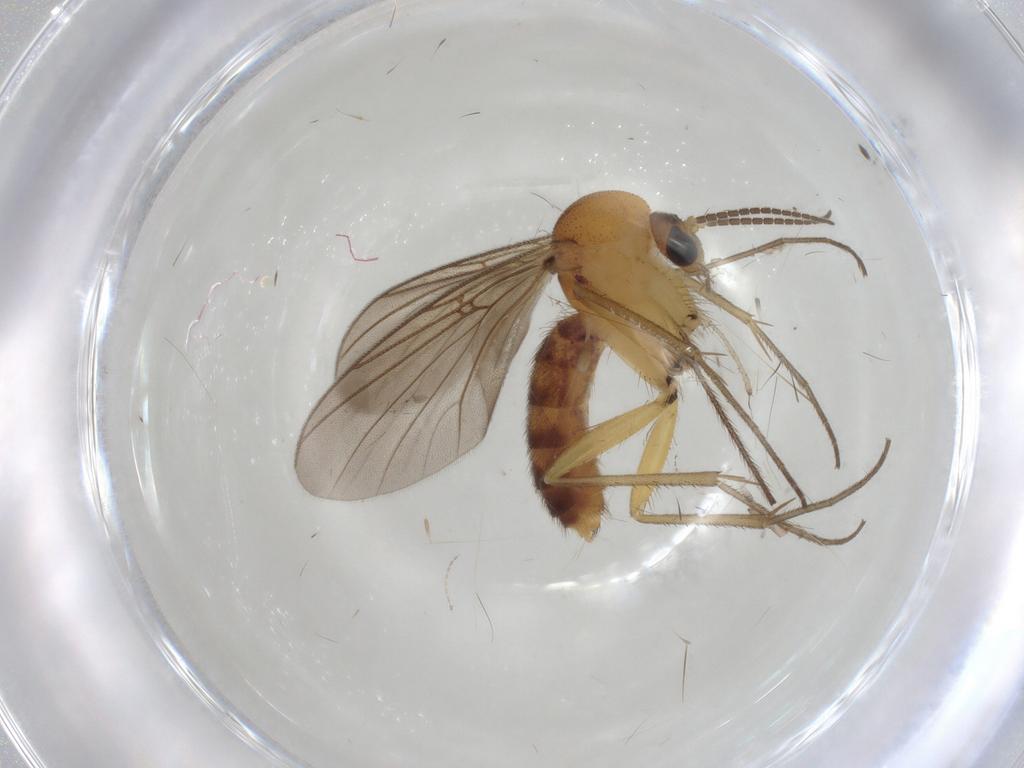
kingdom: Animalia
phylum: Arthropoda
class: Insecta
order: Diptera
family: Mycetophilidae
